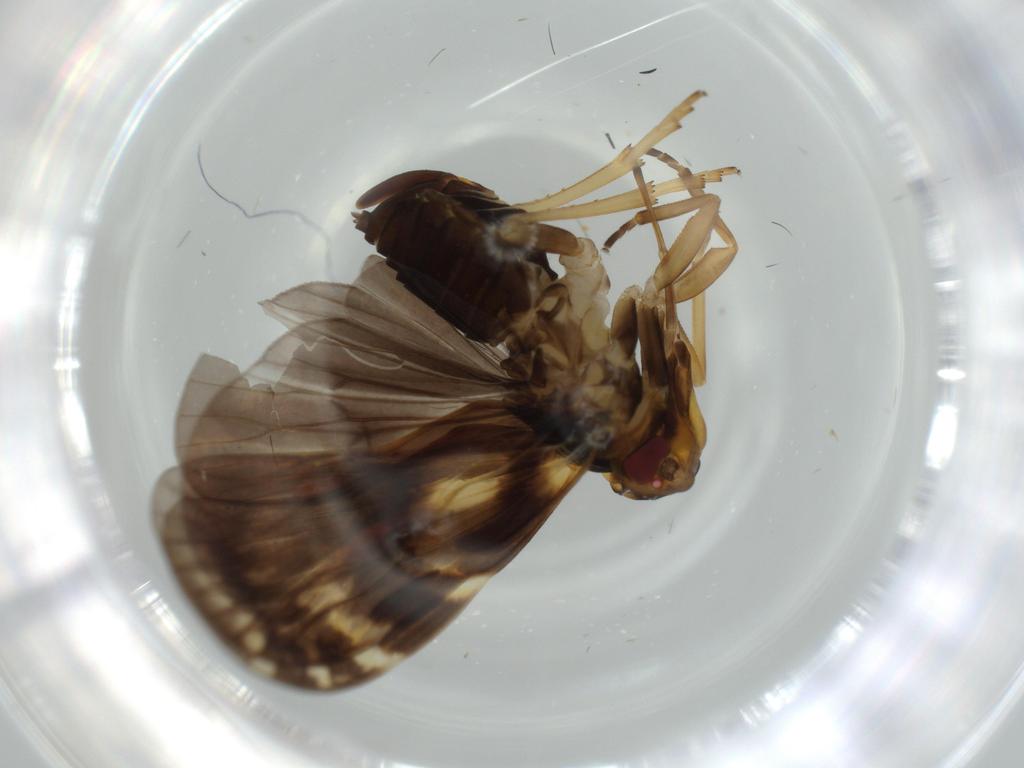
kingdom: Animalia
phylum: Arthropoda
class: Insecta
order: Hemiptera
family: Cixiidae
